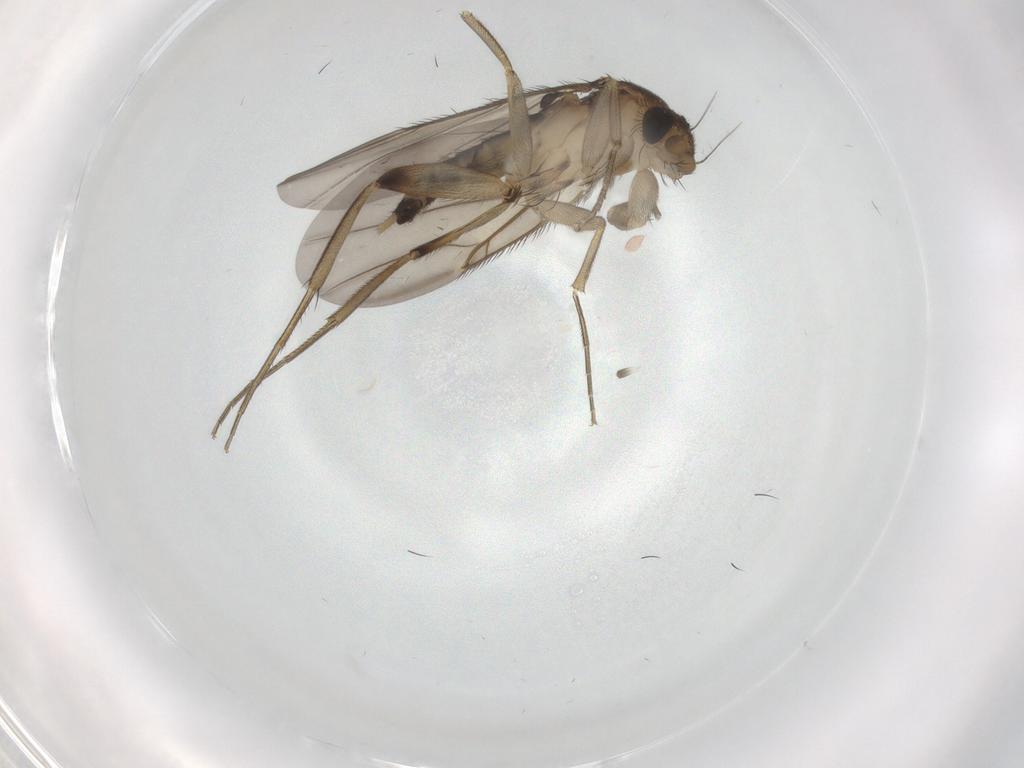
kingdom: Animalia
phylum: Arthropoda
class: Insecta
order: Diptera
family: Phoridae
